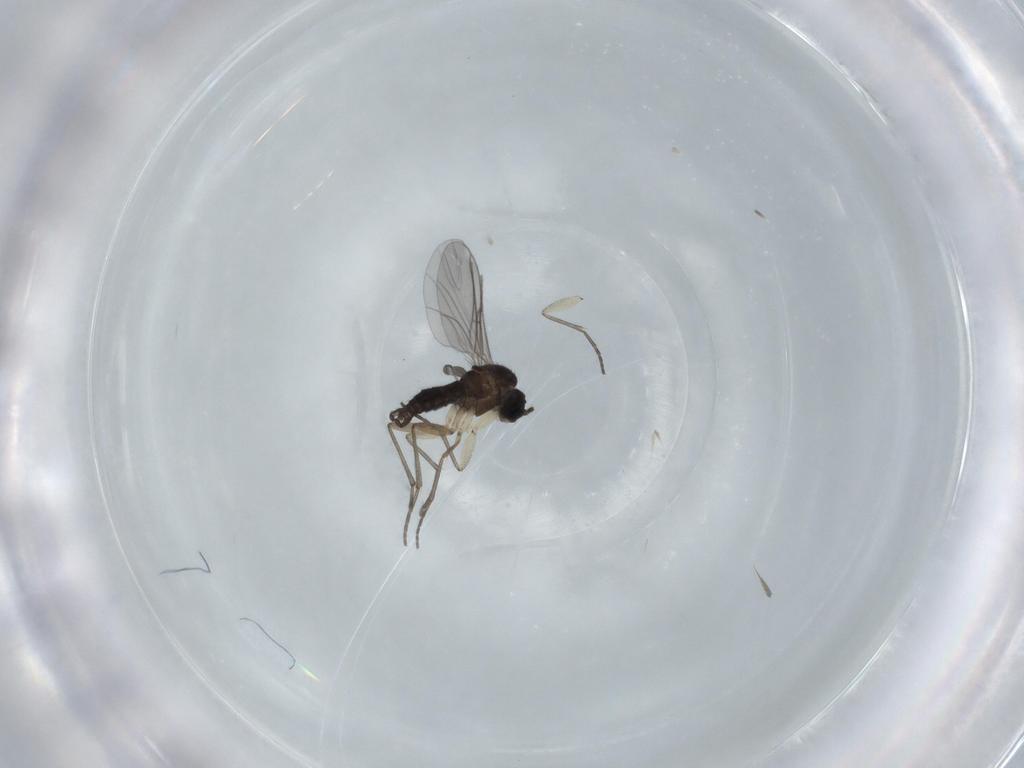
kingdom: Animalia
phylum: Arthropoda
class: Insecta
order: Diptera
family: Sciaridae
